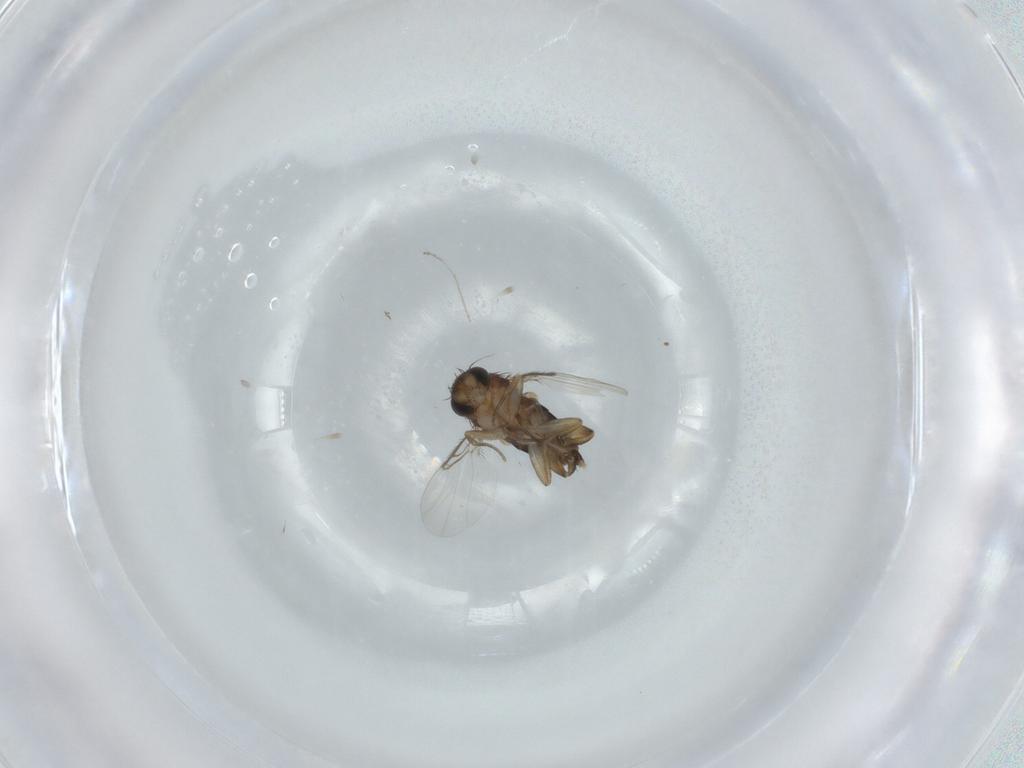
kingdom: Animalia
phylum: Arthropoda
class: Insecta
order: Diptera
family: Phoridae
